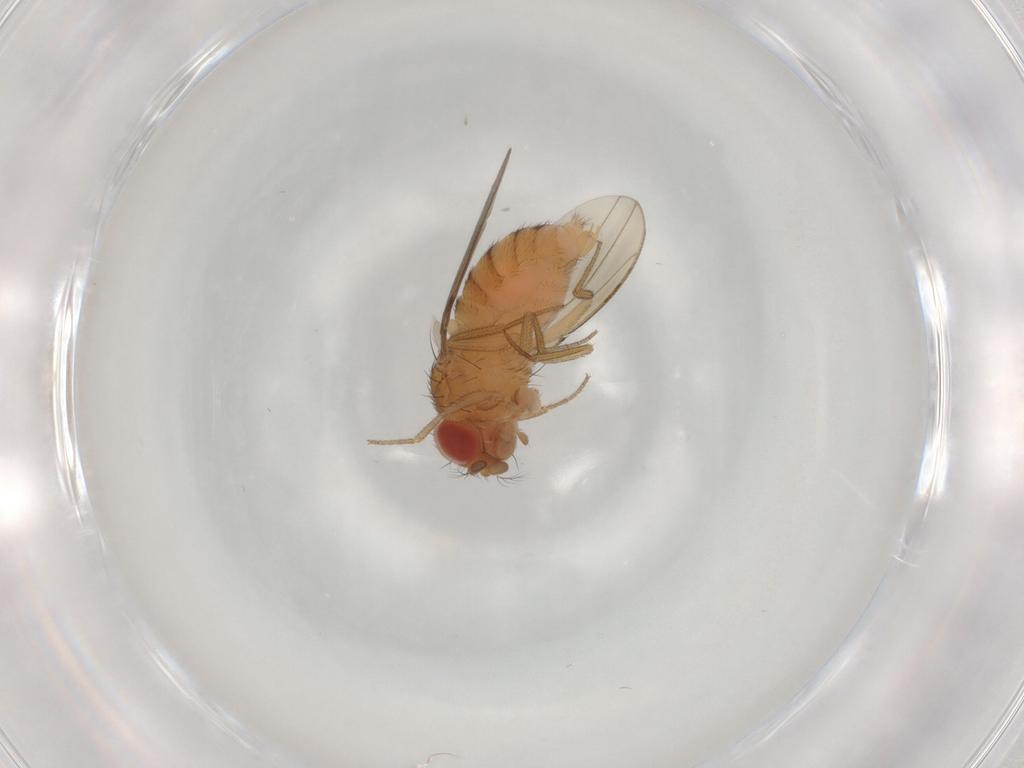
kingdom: Animalia
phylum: Arthropoda
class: Insecta
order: Diptera
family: Drosophilidae
